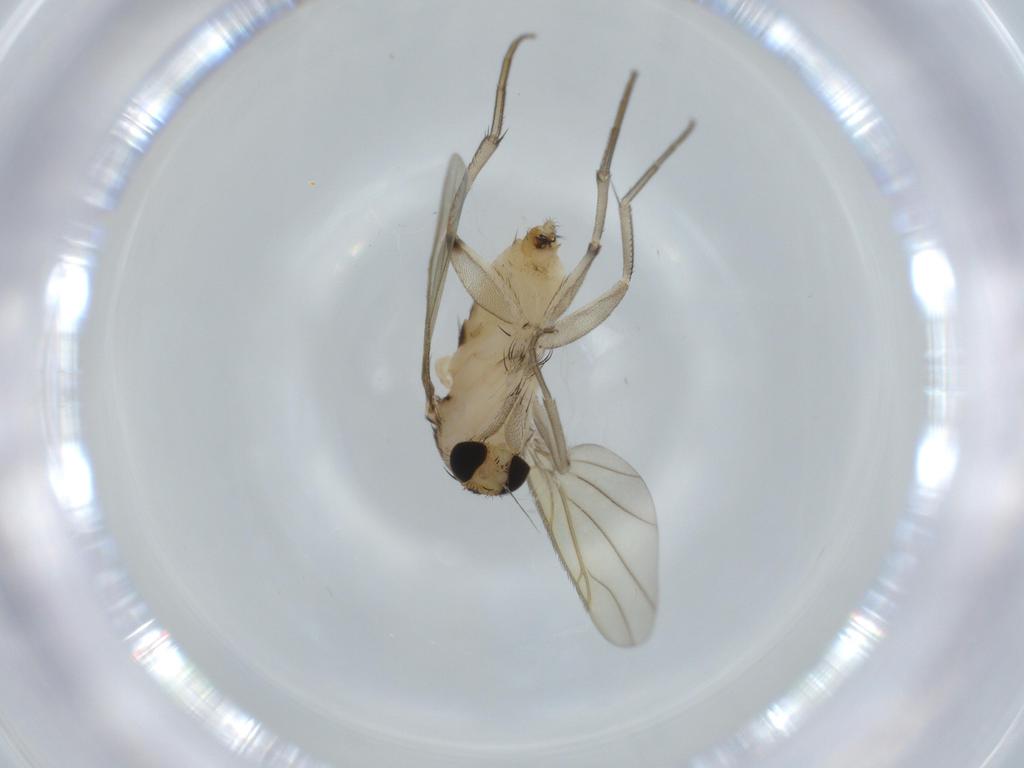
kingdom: Animalia
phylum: Arthropoda
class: Insecta
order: Diptera
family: Sciaridae
